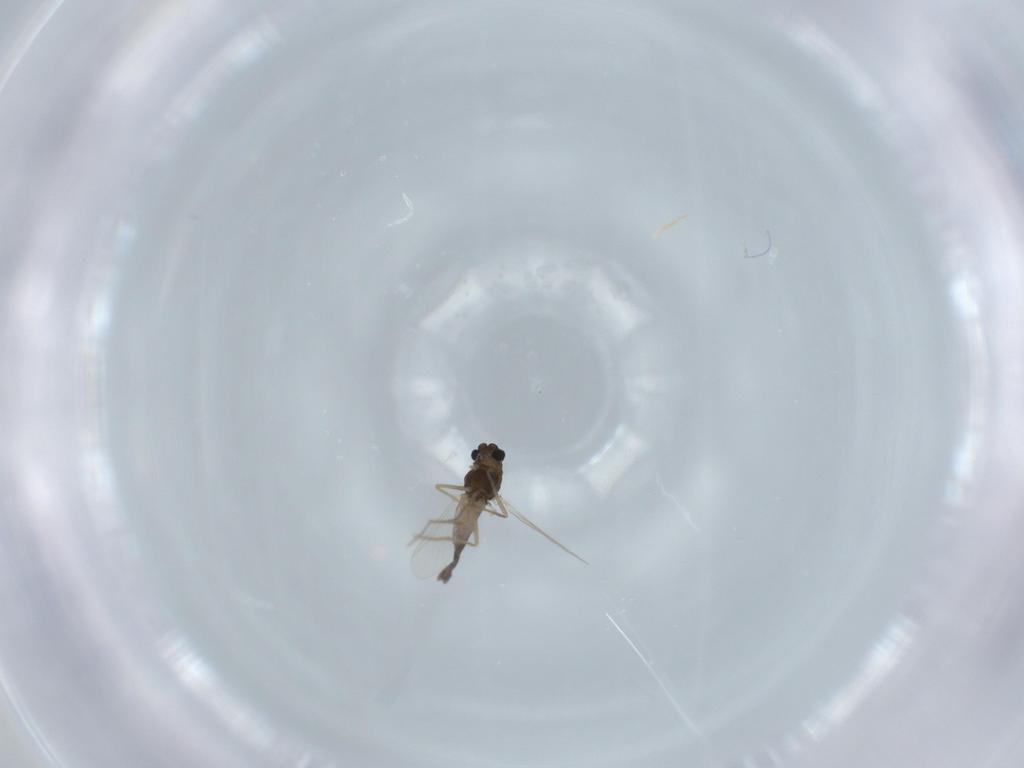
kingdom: Animalia
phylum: Arthropoda
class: Insecta
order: Diptera
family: Chironomidae
